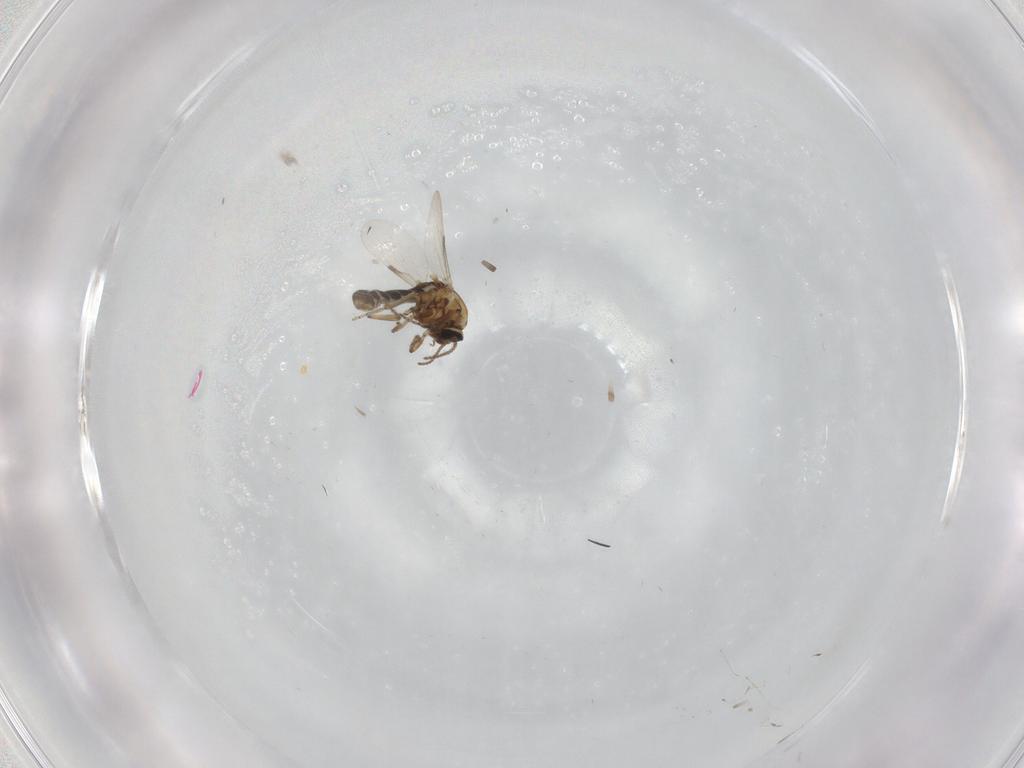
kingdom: Animalia
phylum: Arthropoda
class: Insecta
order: Diptera
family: Ceratopogonidae
